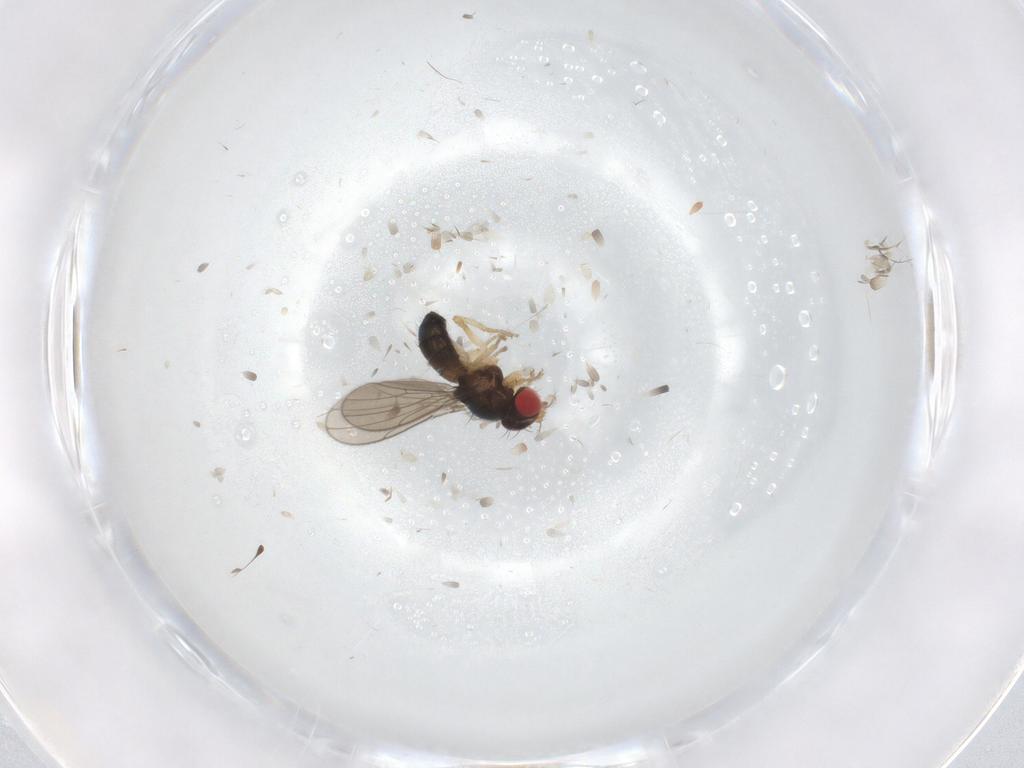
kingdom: Animalia
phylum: Arthropoda
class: Insecta
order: Diptera
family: Drosophilidae
